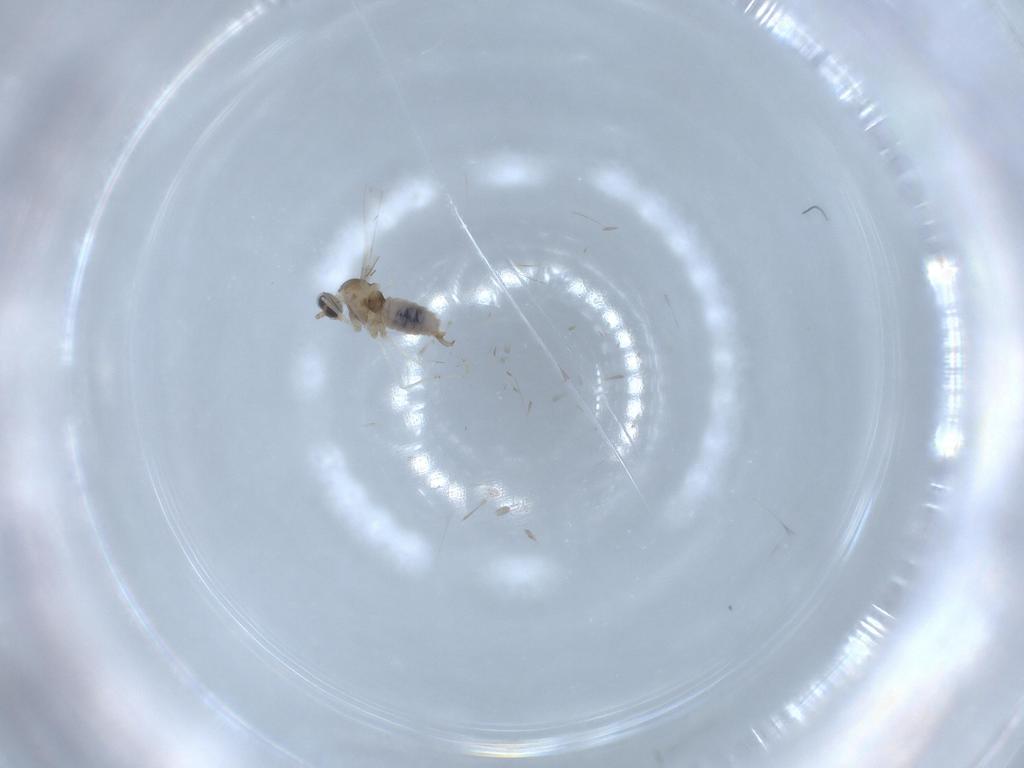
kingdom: Animalia
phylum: Arthropoda
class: Insecta
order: Diptera
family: Cecidomyiidae
